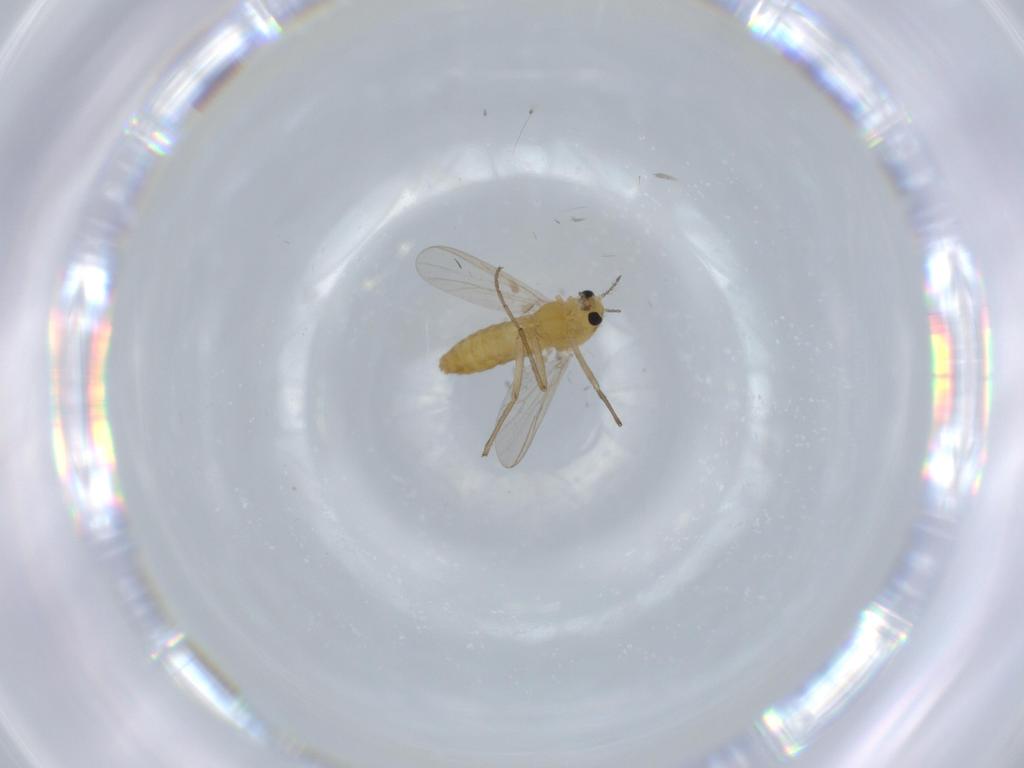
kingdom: Animalia
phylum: Arthropoda
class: Insecta
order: Diptera
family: Chironomidae
